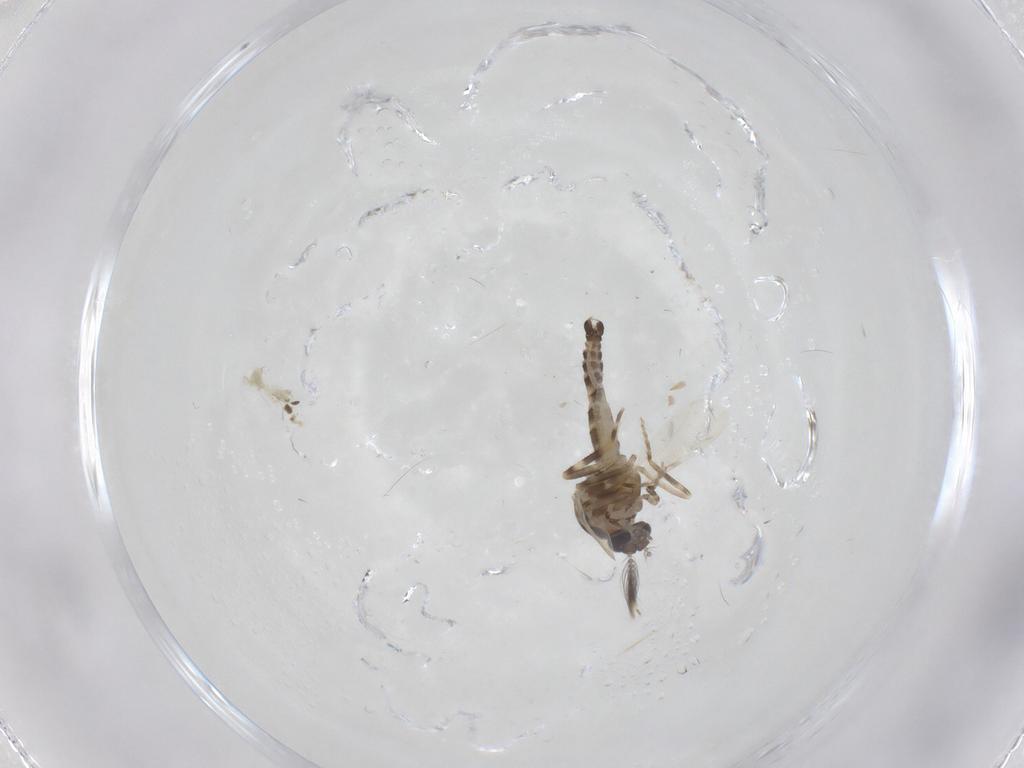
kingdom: Animalia
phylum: Arthropoda
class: Insecta
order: Diptera
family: Ceratopogonidae
